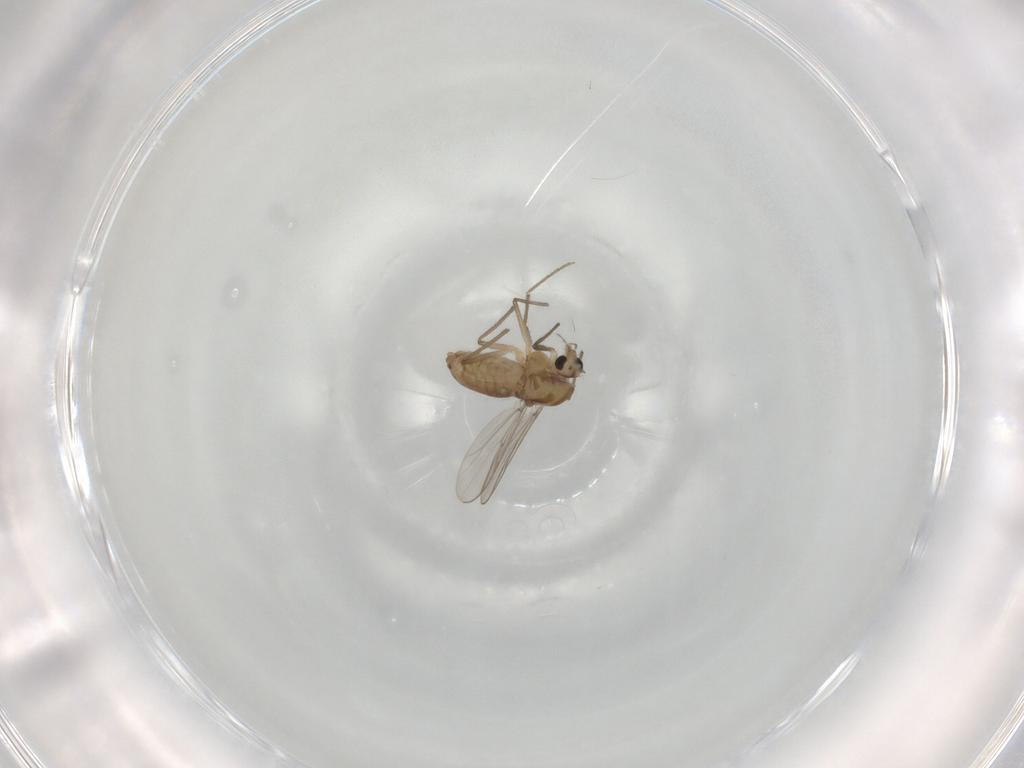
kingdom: Animalia
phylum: Arthropoda
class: Insecta
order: Diptera
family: Chironomidae
